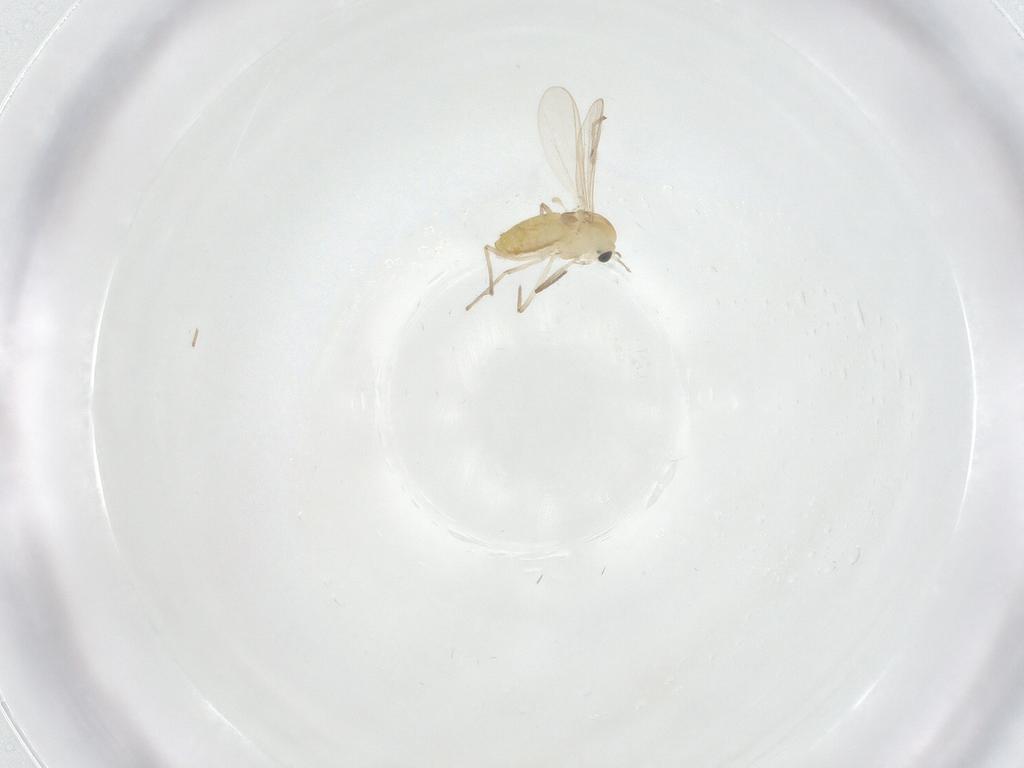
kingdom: Animalia
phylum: Arthropoda
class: Insecta
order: Diptera
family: Chironomidae
